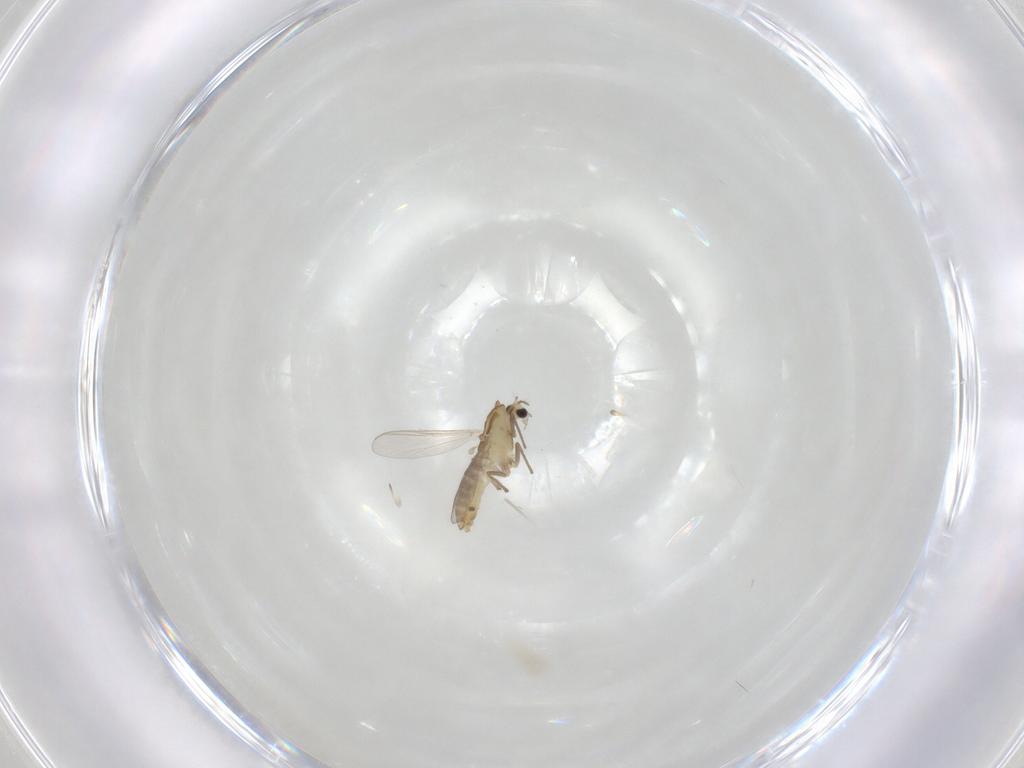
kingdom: Animalia
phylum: Arthropoda
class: Insecta
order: Diptera
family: Chironomidae
